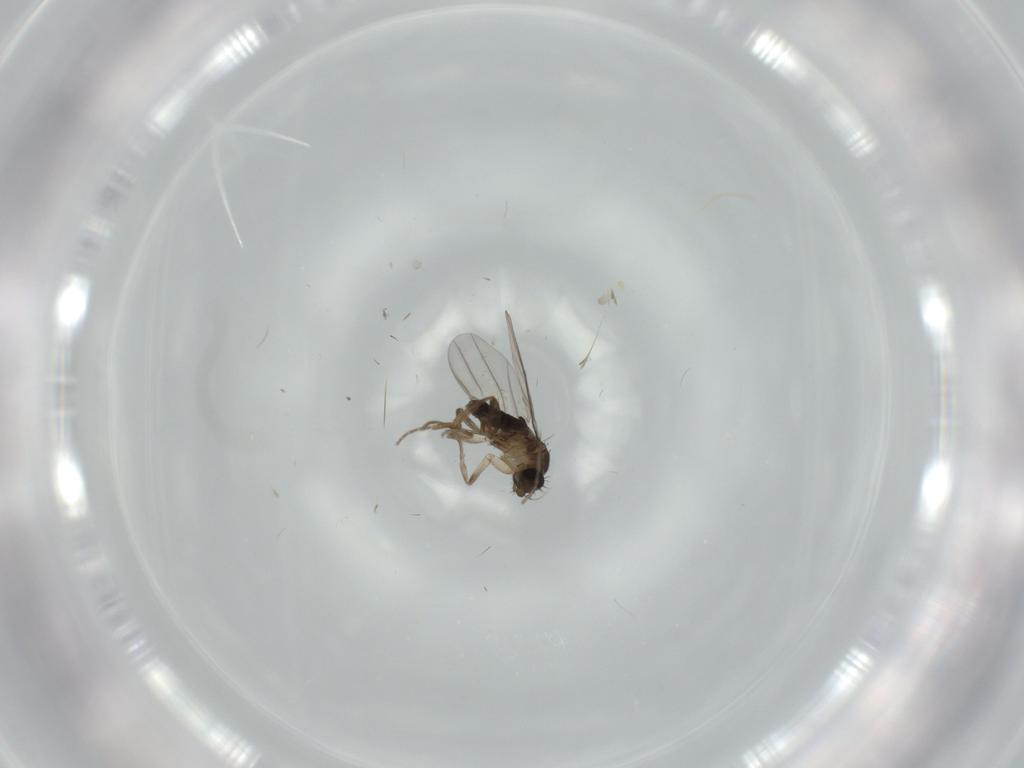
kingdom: Animalia
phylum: Arthropoda
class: Insecta
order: Diptera
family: Phoridae
